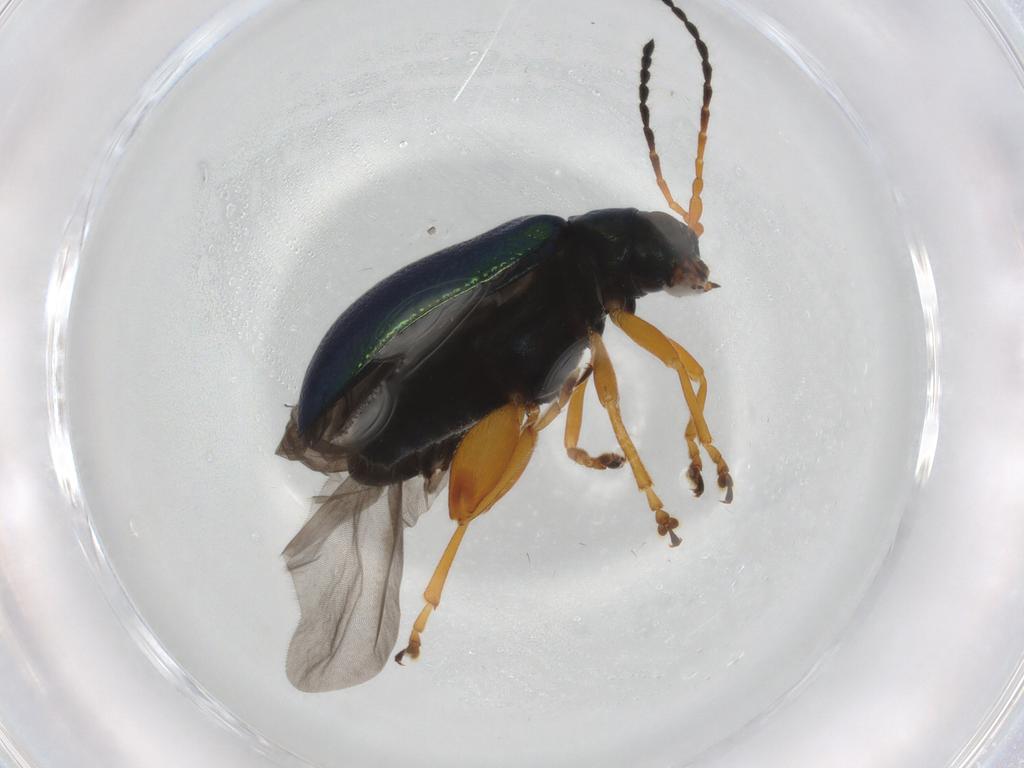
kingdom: Animalia
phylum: Arthropoda
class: Insecta
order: Coleoptera
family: Chrysomelidae
